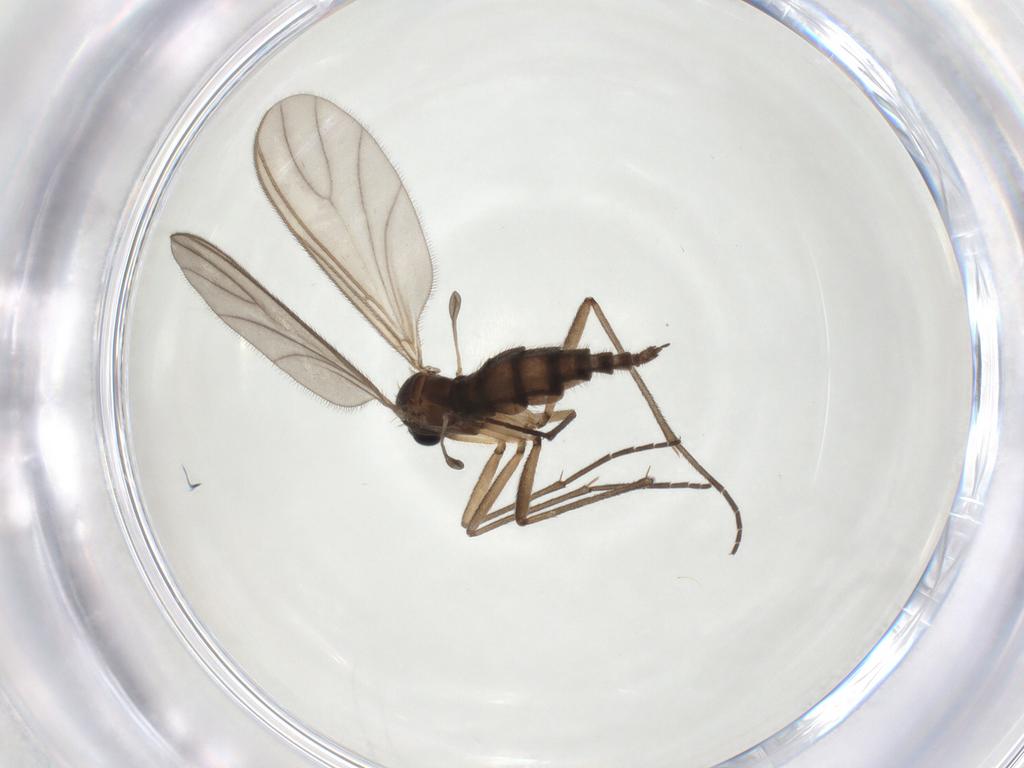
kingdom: Animalia
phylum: Arthropoda
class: Insecta
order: Diptera
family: Sciaridae
